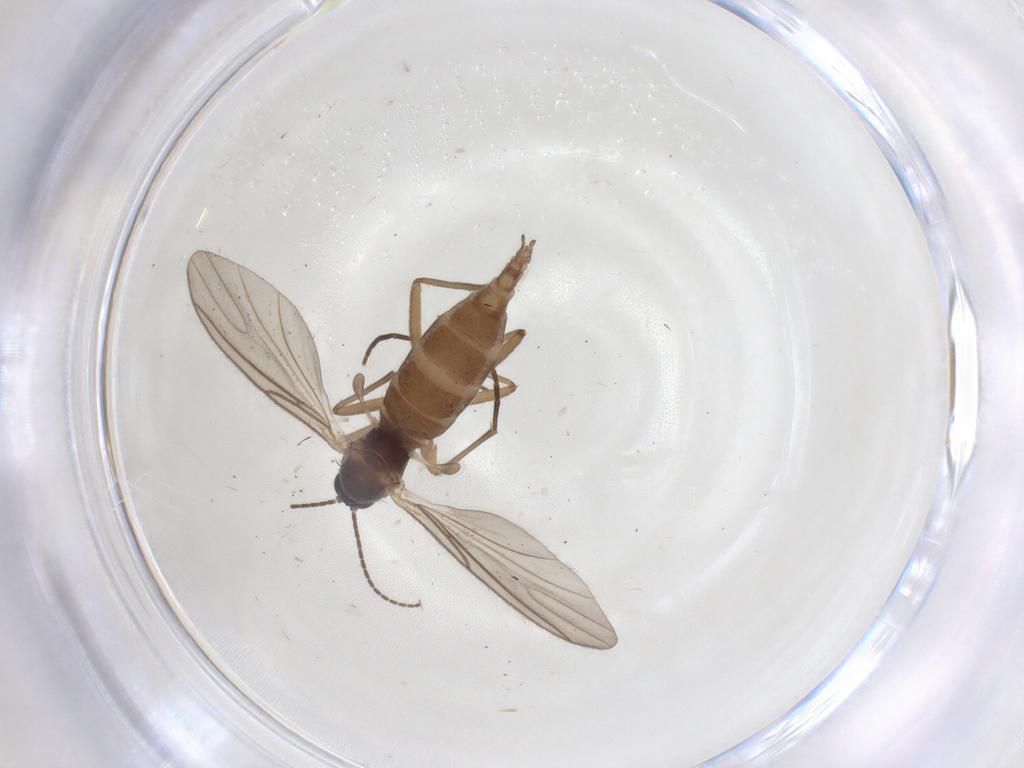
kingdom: Animalia
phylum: Arthropoda
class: Insecta
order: Diptera
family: Sciaridae
